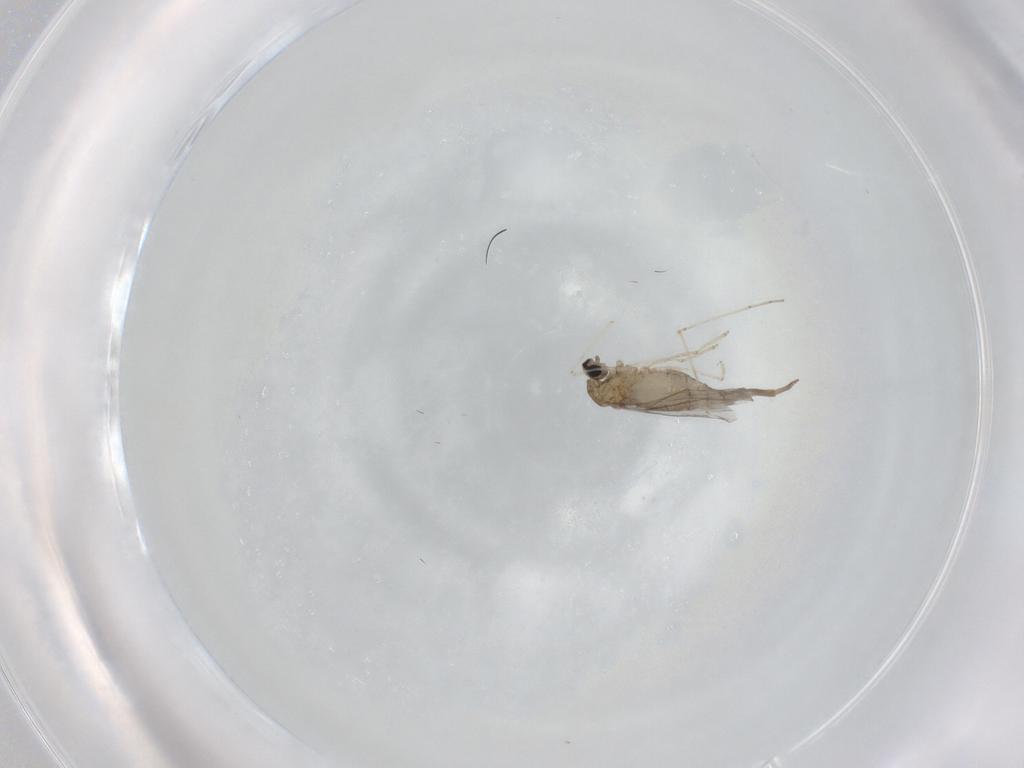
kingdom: Animalia
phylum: Arthropoda
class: Insecta
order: Diptera
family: Cecidomyiidae
